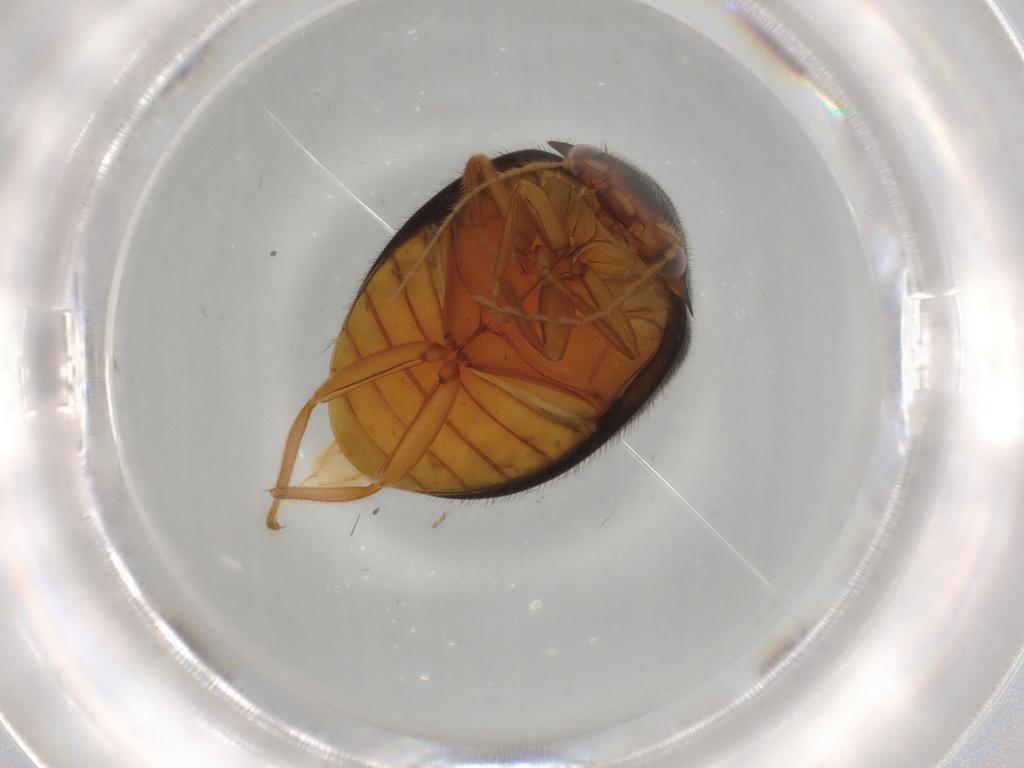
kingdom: Animalia
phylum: Arthropoda
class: Insecta
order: Coleoptera
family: Scirtidae
